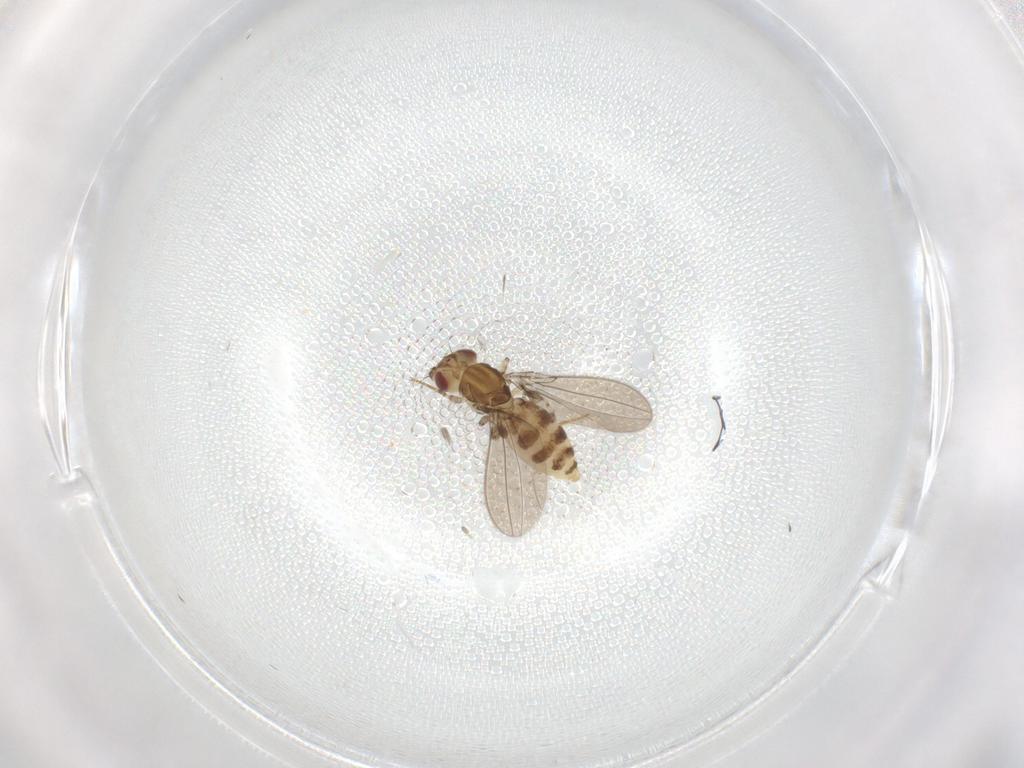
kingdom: Animalia
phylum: Arthropoda
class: Insecta
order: Diptera
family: Asteiidae
